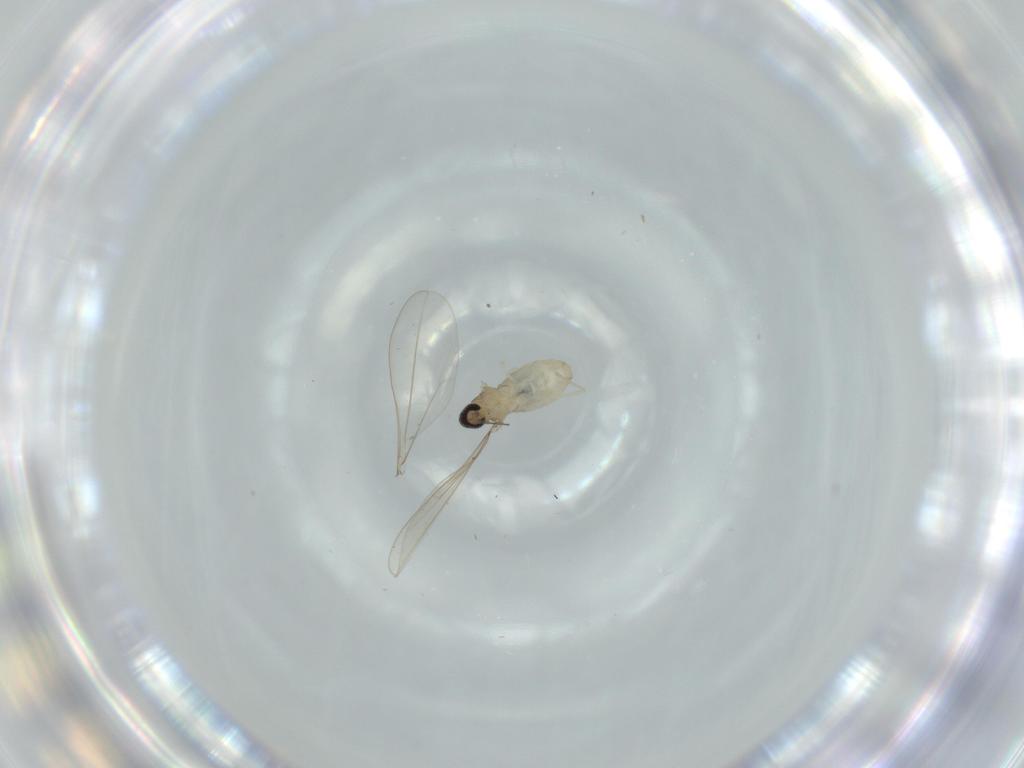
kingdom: Animalia
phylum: Arthropoda
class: Insecta
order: Diptera
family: Cecidomyiidae
